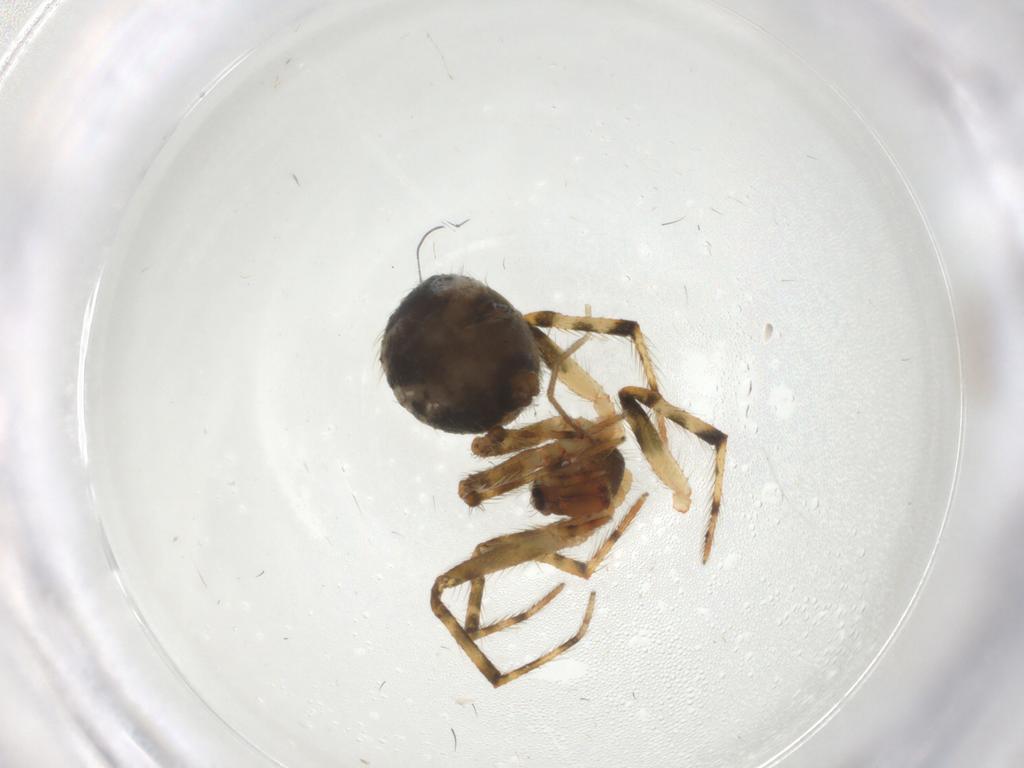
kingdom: Animalia
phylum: Arthropoda
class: Arachnida
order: Araneae
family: Theridiidae
